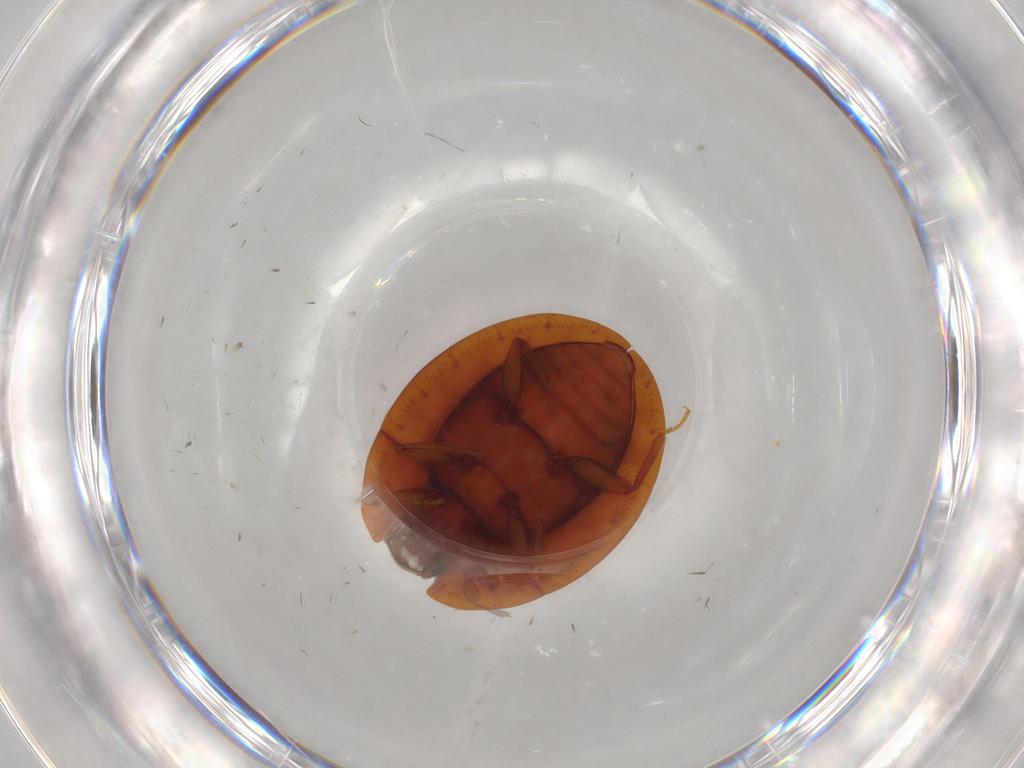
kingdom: Animalia
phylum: Arthropoda
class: Insecta
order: Coleoptera
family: Discolomatidae
